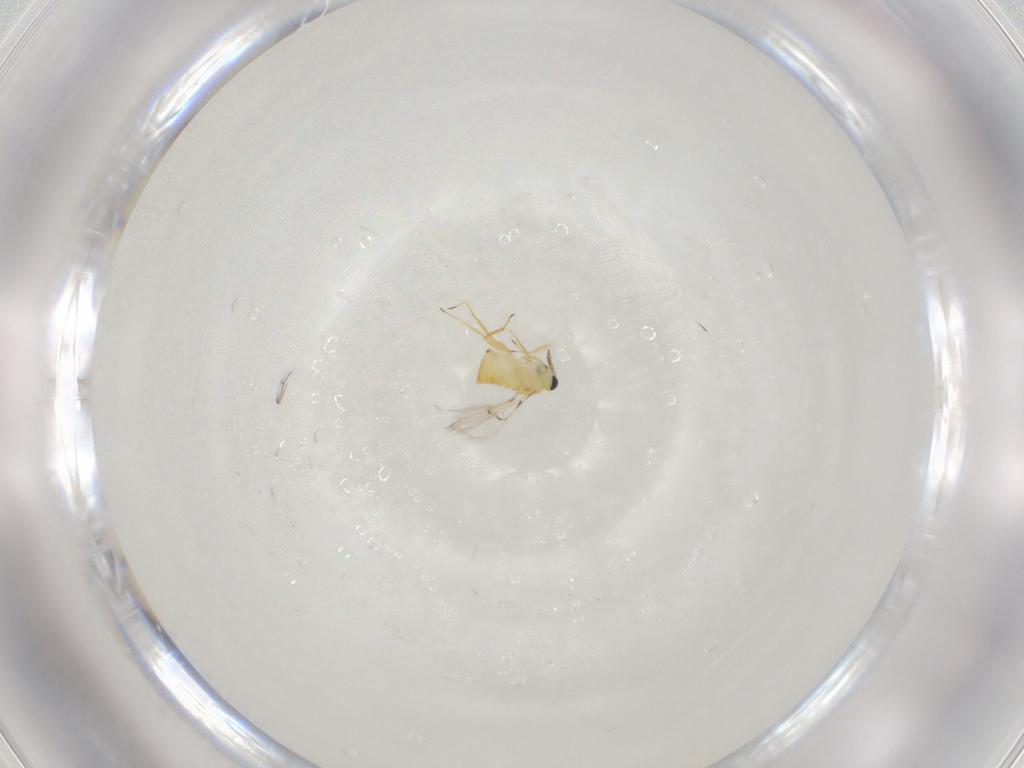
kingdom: Animalia
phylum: Arthropoda
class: Insecta
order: Hymenoptera
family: Trichogrammatidae
